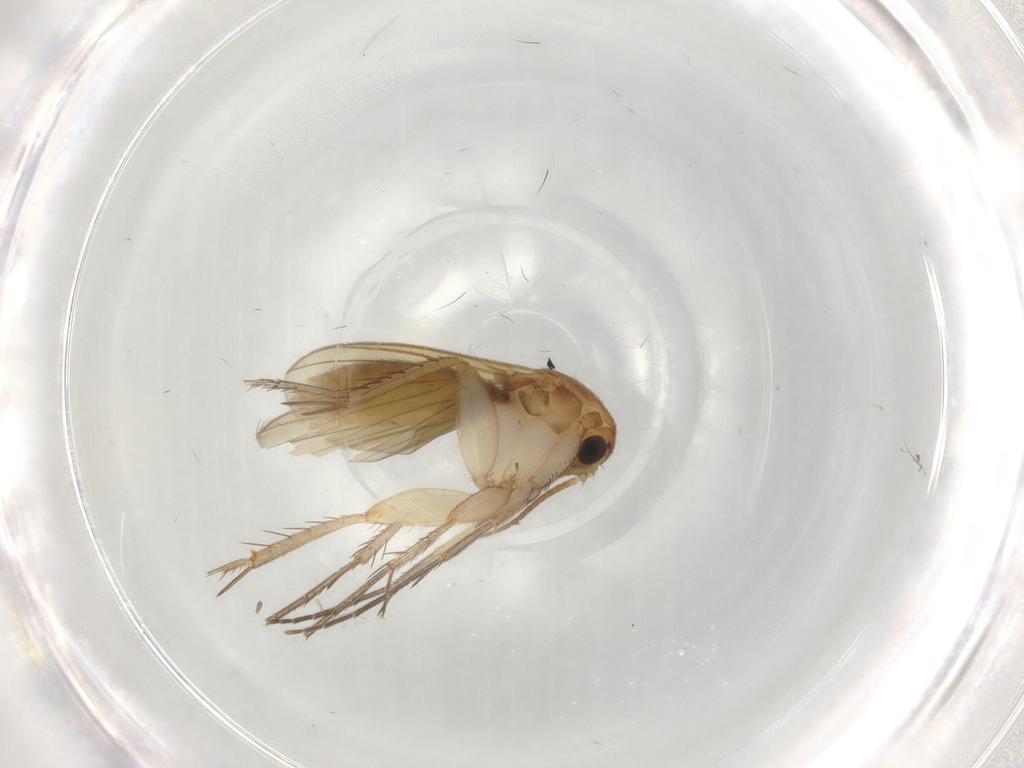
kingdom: Animalia
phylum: Arthropoda
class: Insecta
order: Diptera
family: Mycetophilidae
